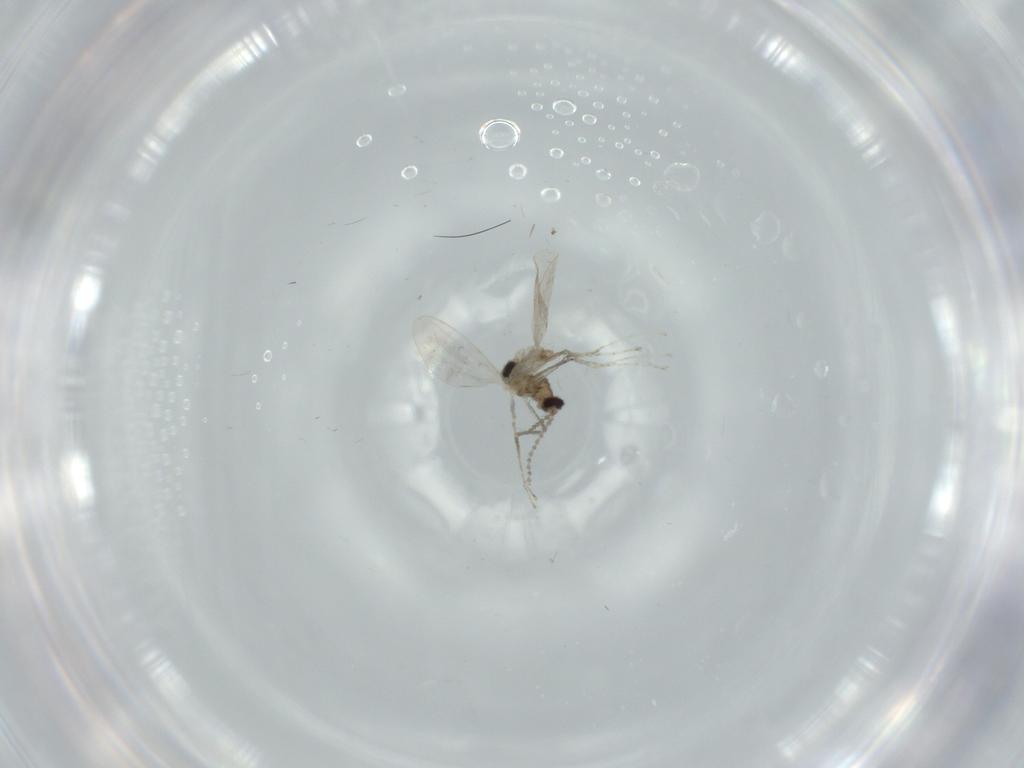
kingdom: Animalia
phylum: Arthropoda
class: Insecta
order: Diptera
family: Cecidomyiidae
